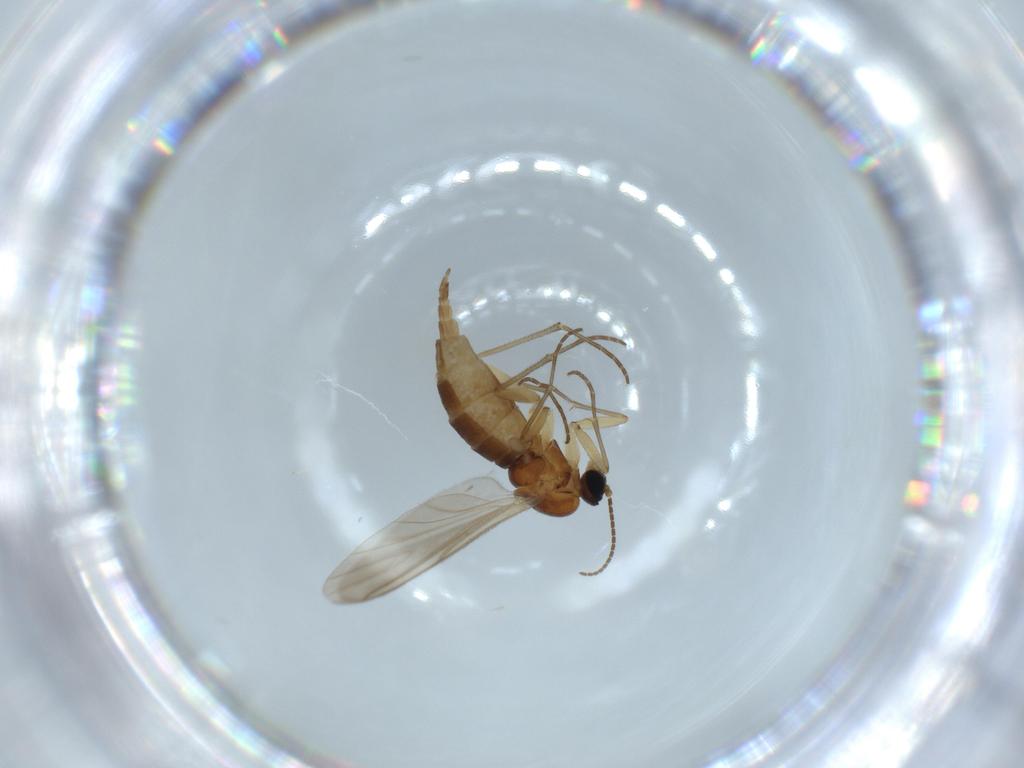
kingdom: Animalia
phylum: Arthropoda
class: Insecta
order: Diptera
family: Sciaridae
